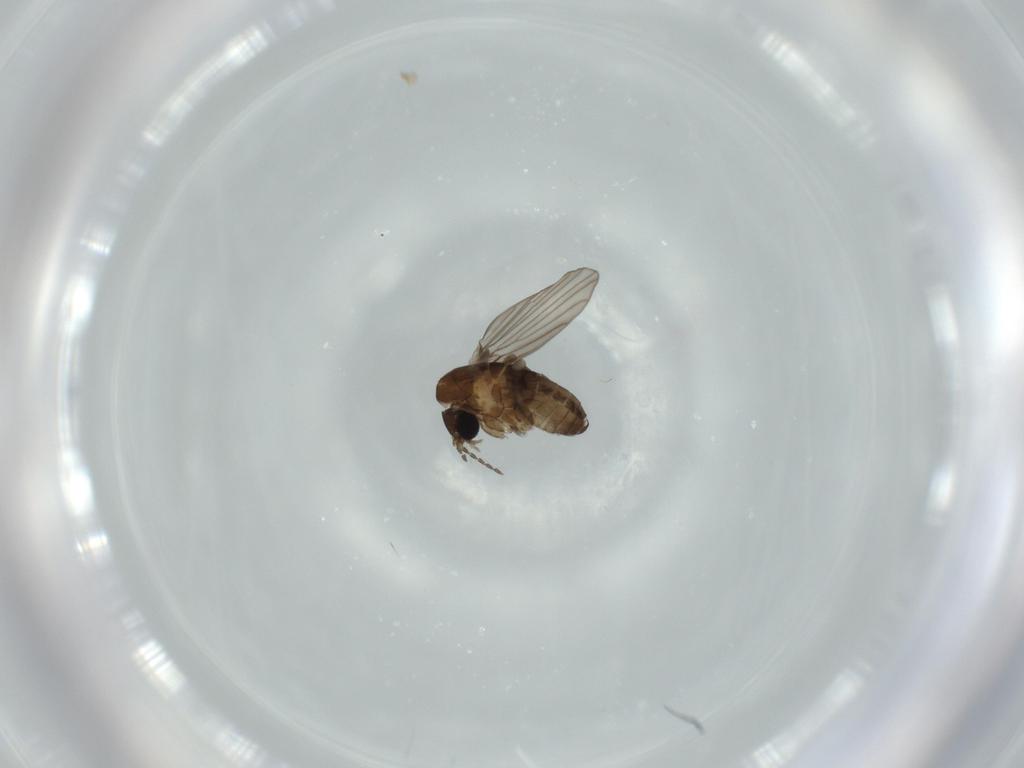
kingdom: Animalia
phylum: Arthropoda
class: Insecta
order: Diptera
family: Psychodidae
